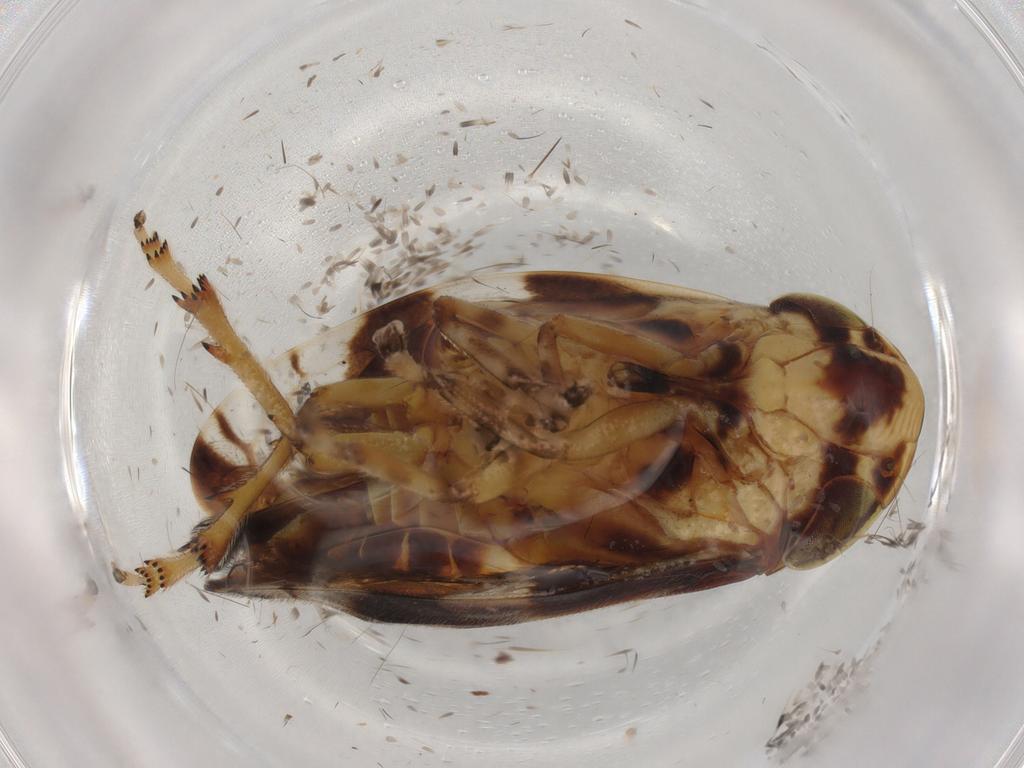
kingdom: Animalia
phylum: Arthropoda
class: Insecta
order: Hemiptera
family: Aphrophoridae
